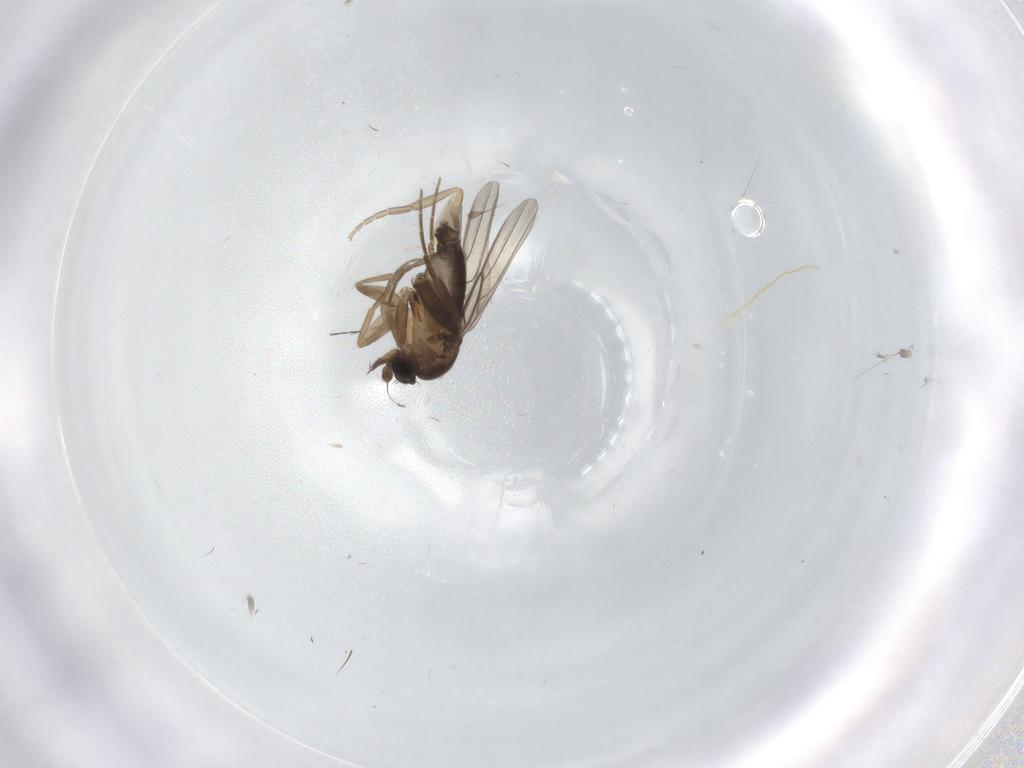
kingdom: Animalia
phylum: Arthropoda
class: Insecta
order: Diptera
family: Phoridae
